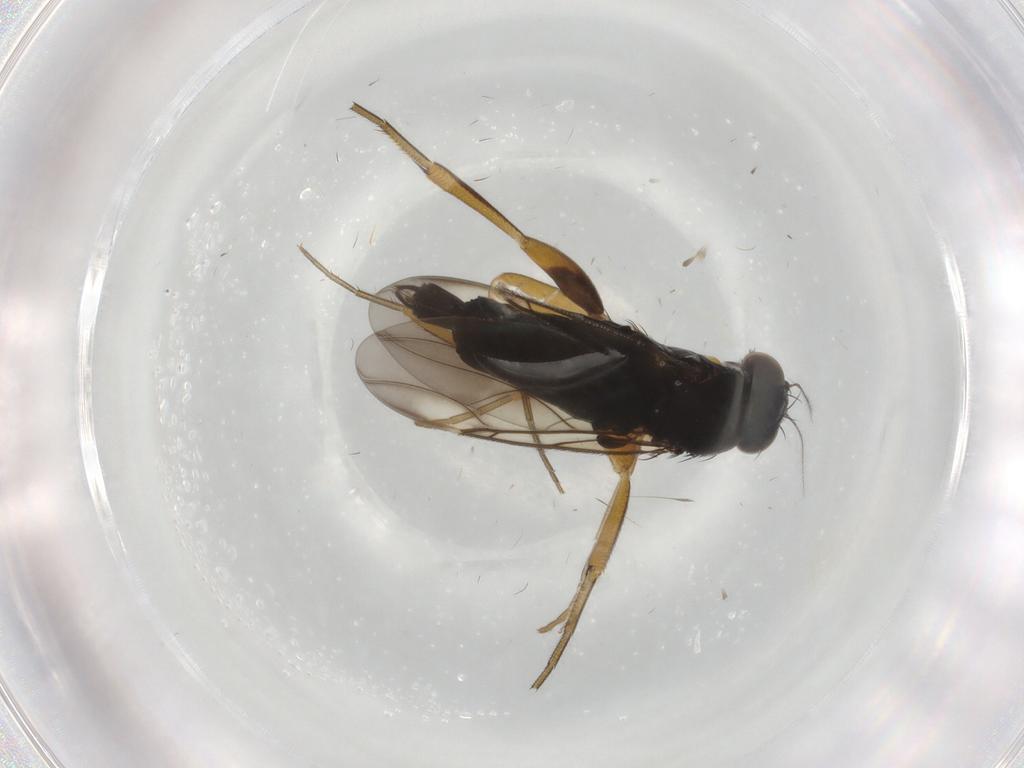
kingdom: Animalia
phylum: Arthropoda
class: Insecta
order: Diptera
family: Phoridae
